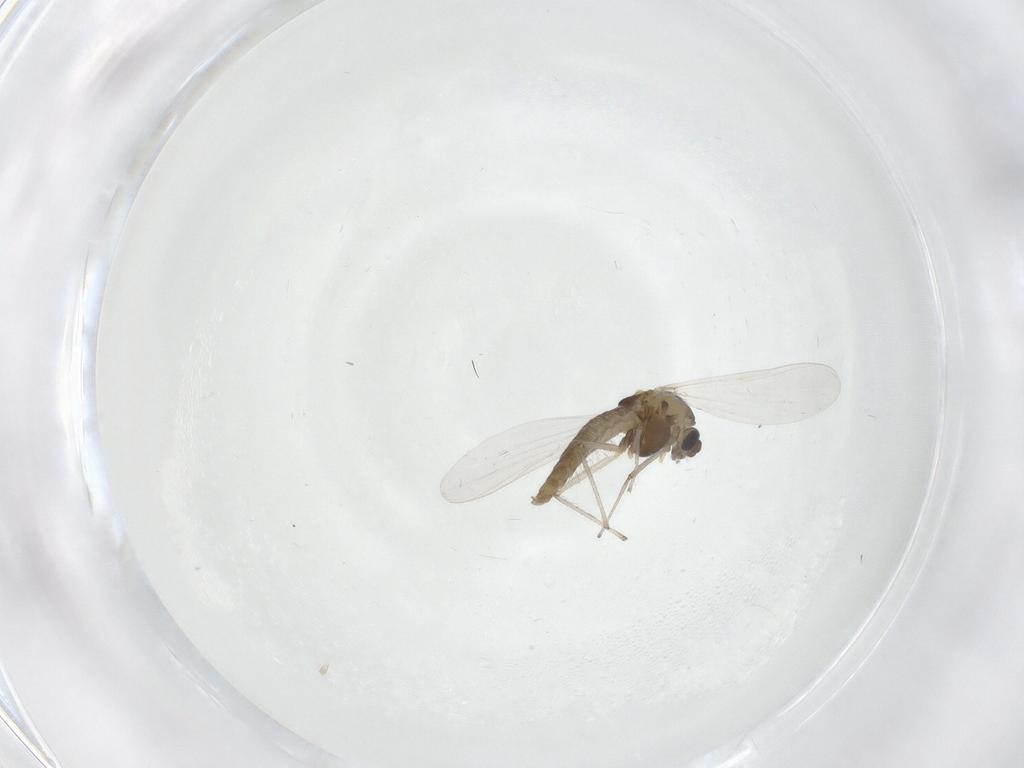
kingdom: Animalia
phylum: Arthropoda
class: Insecta
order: Diptera
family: Chironomidae
